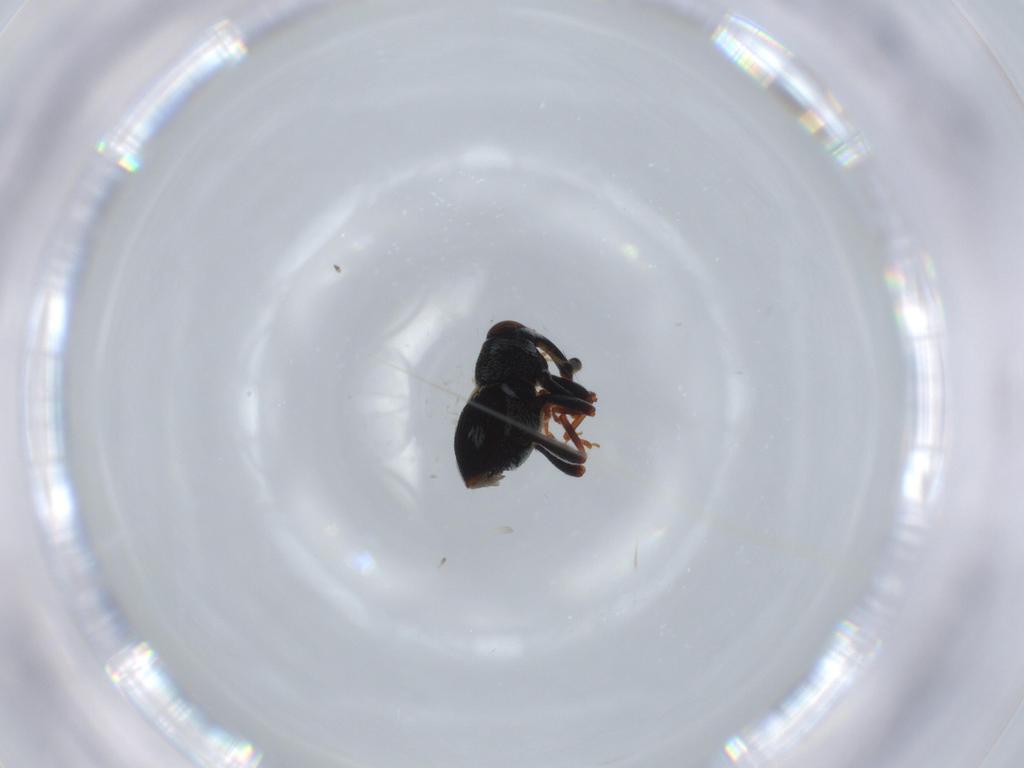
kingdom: Animalia
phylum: Arthropoda
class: Insecta
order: Coleoptera
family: Curculionidae
